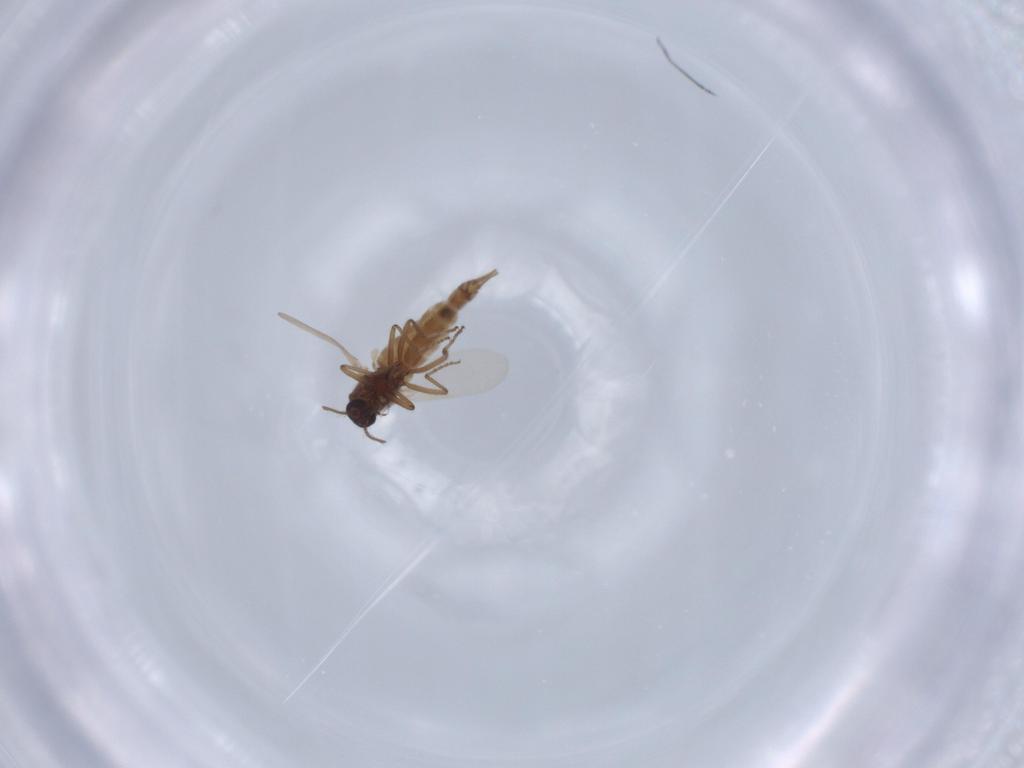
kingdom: Animalia
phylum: Arthropoda
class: Insecta
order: Diptera
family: Ceratopogonidae
